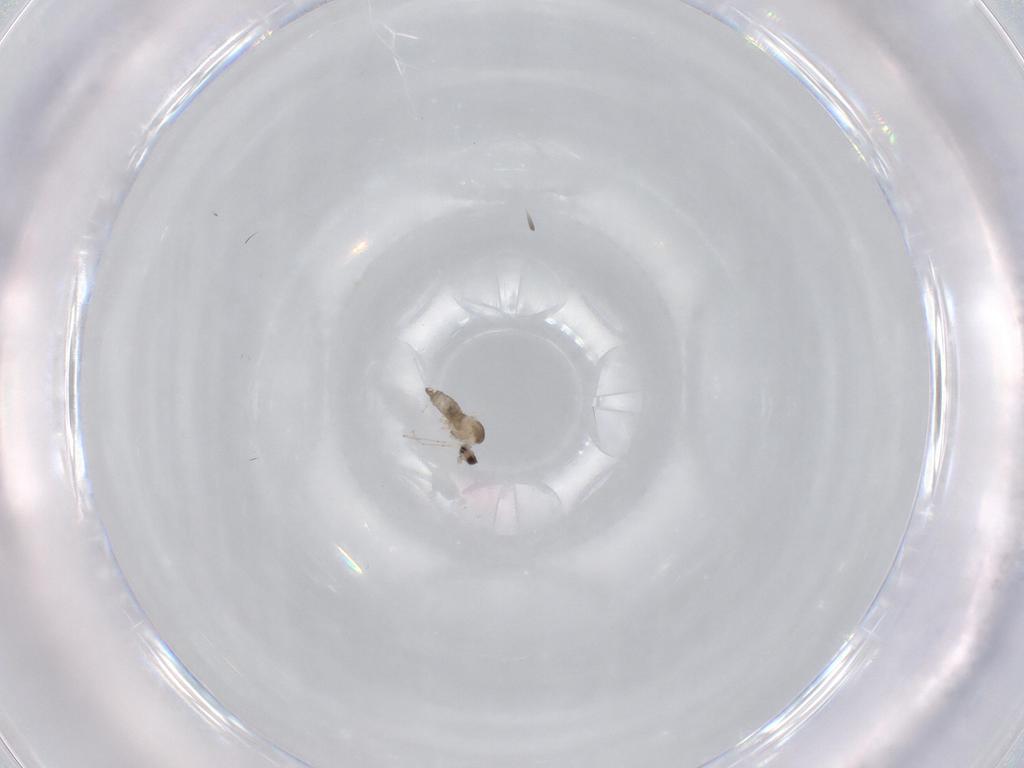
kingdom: Animalia
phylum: Arthropoda
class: Insecta
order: Diptera
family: Cecidomyiidae
